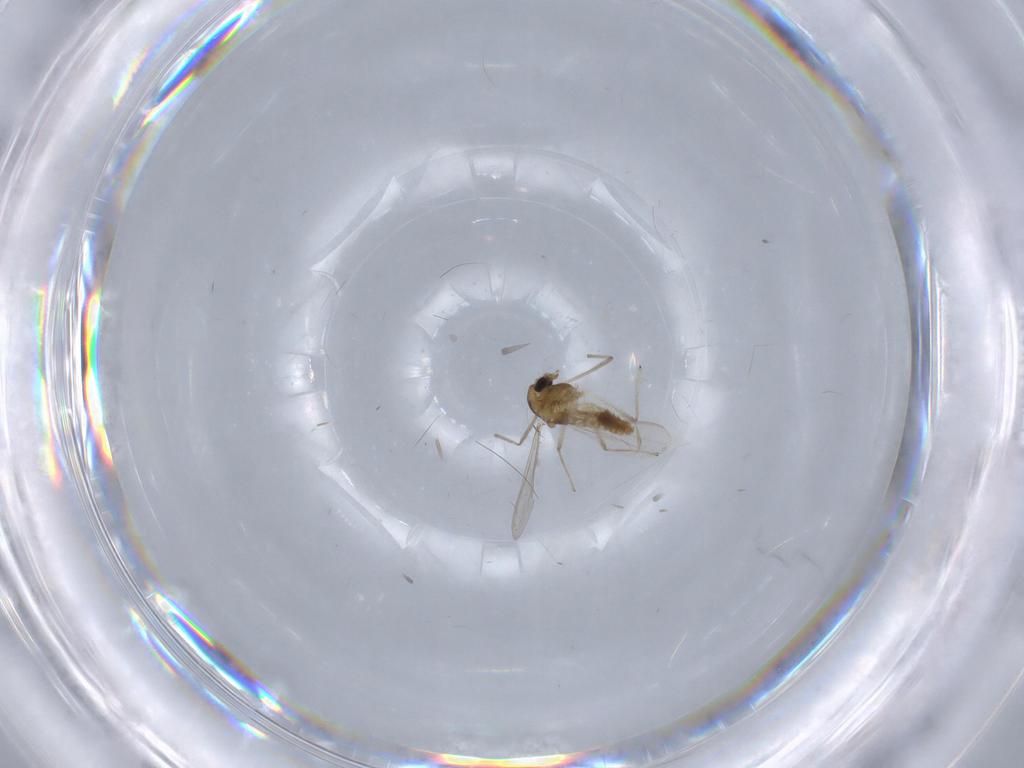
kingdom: Animalia
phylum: Arthropoda
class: Insecta
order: Diptera
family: Chironomidae
